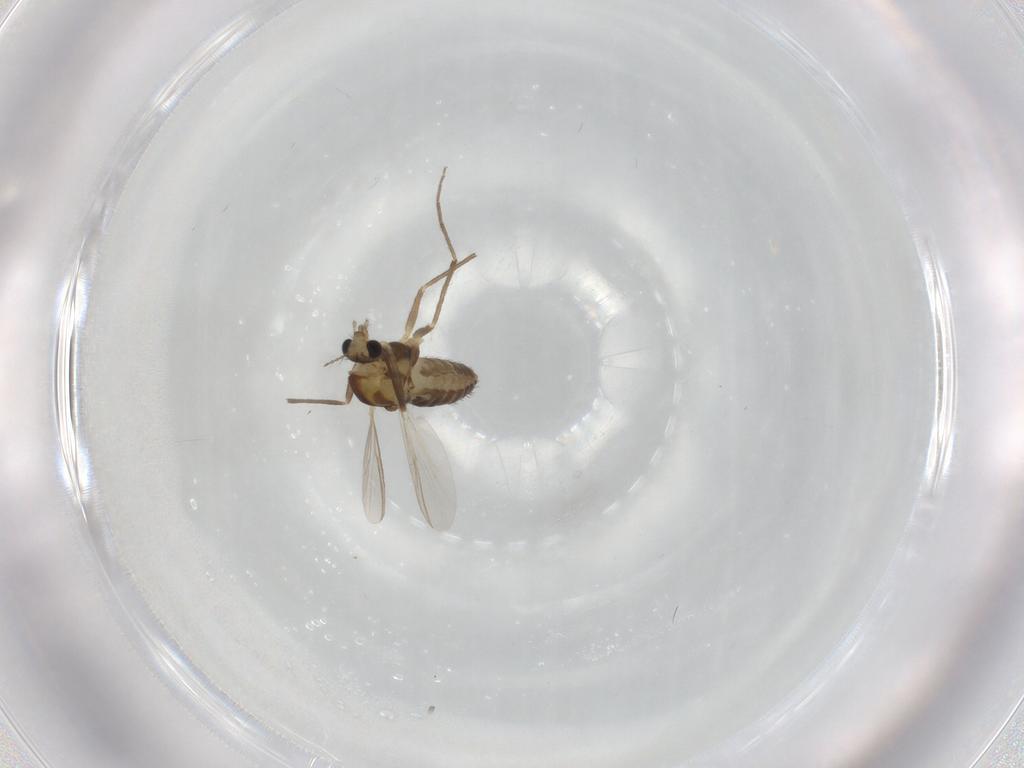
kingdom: Animalia
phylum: Arthropoda
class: Insecta
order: Diptera
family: Chironomidae
